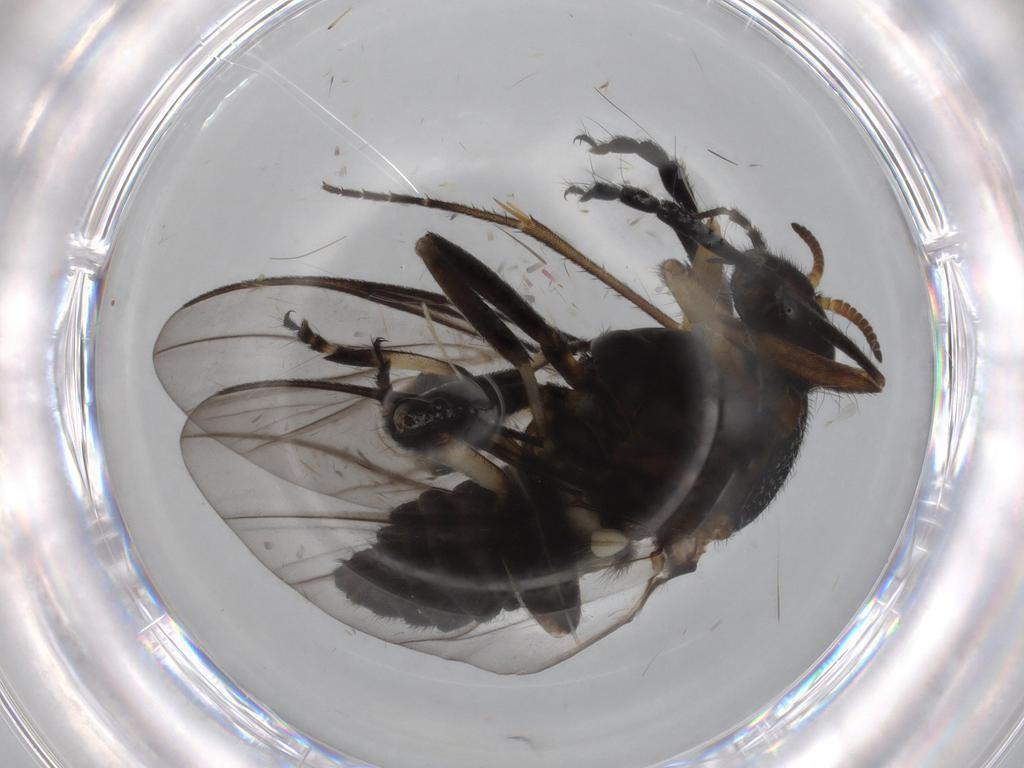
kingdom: Animalia
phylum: Arthropoda
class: Insecta
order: Diptera
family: Phoridae
